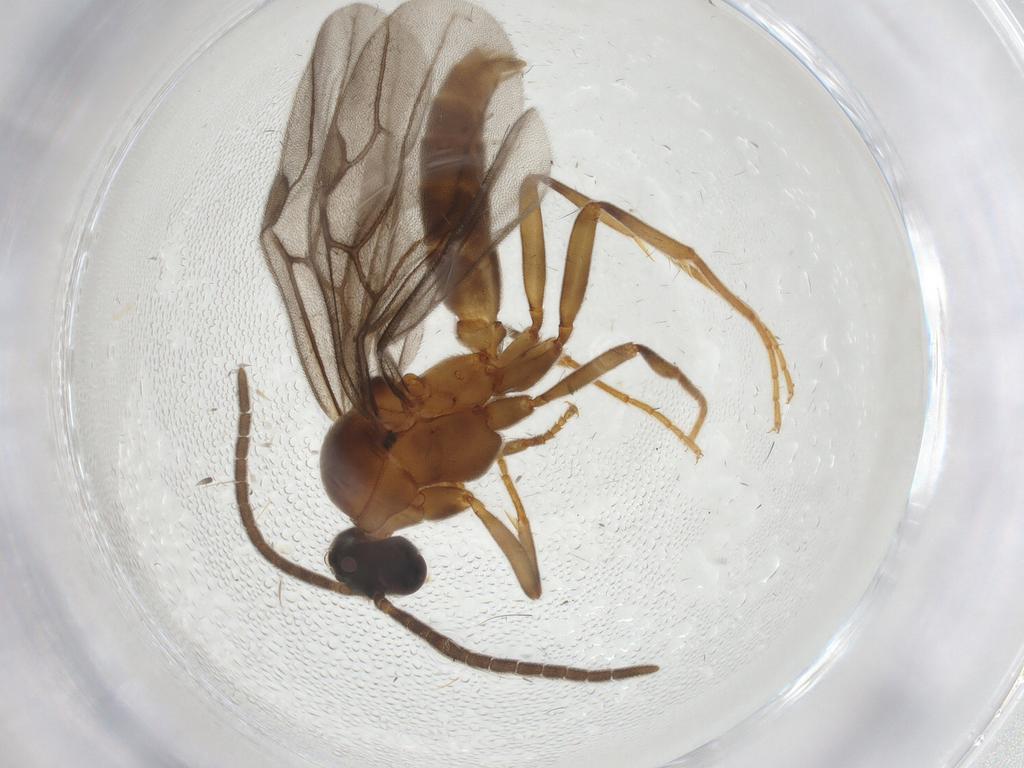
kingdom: Animalia
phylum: Arthropoda
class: Insecta
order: Hymenoptera
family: Formicidae
